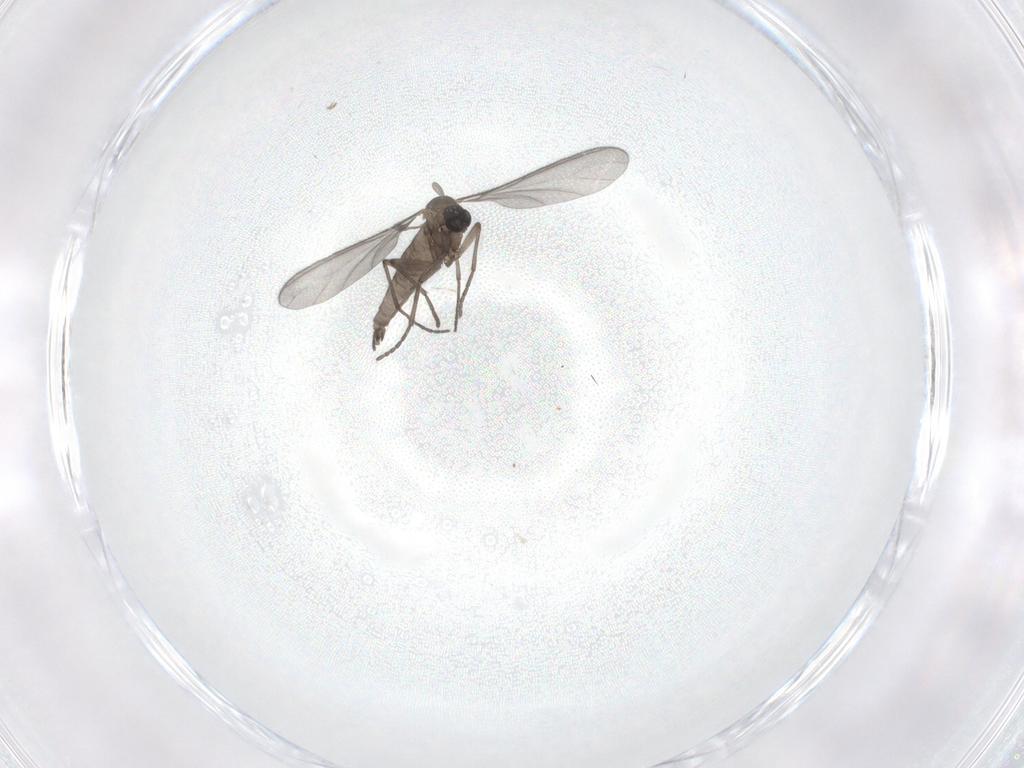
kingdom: Animalia
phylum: Arthropoda
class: Insecta
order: Diptera
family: Sciaridae
